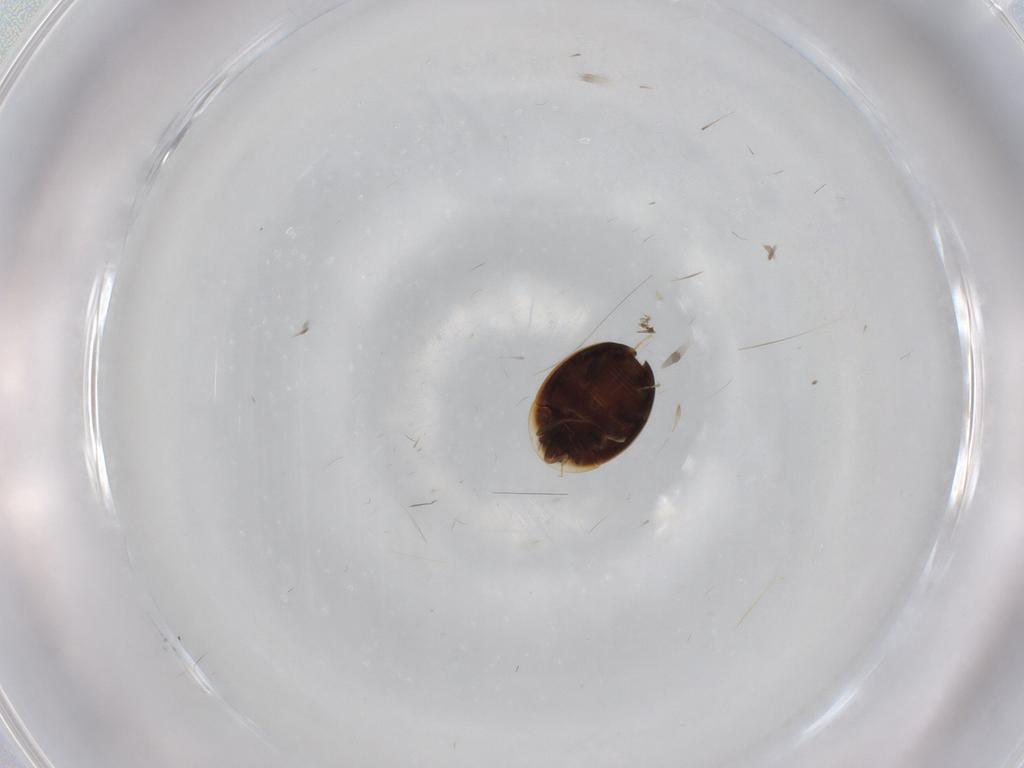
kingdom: Animalia
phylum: Arthropoda
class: Insecta
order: Coleoptera
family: Corylophidae
